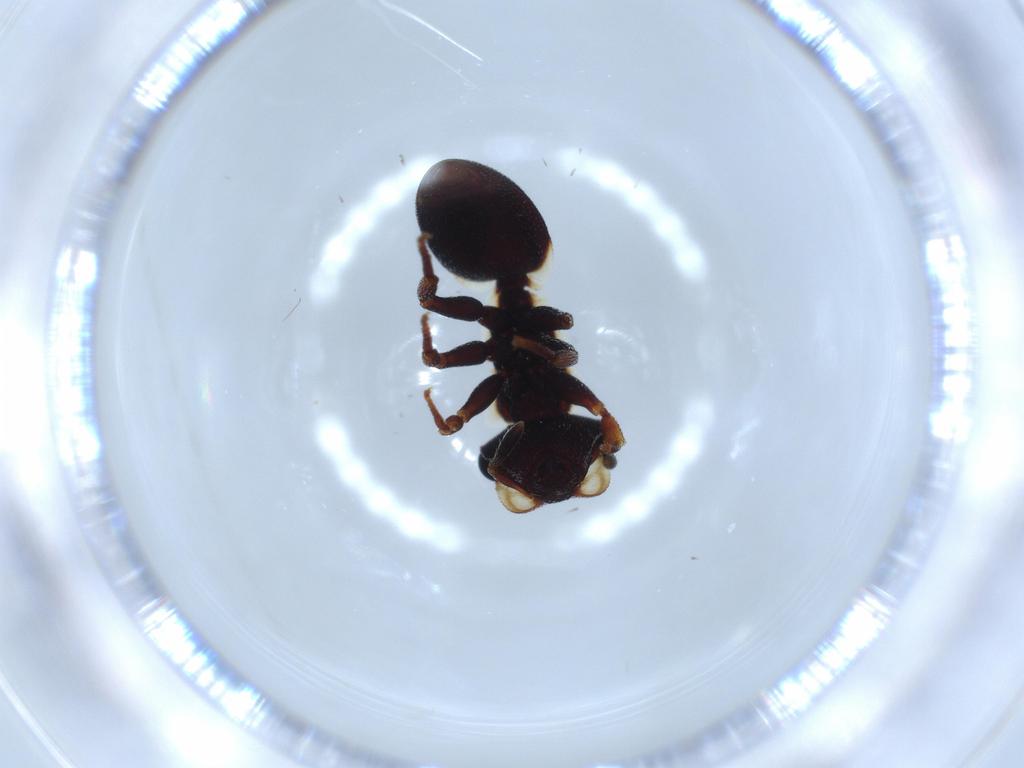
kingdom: Animalia
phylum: Arthropoda
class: Insecta
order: Hymenoptera
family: Formicidae
